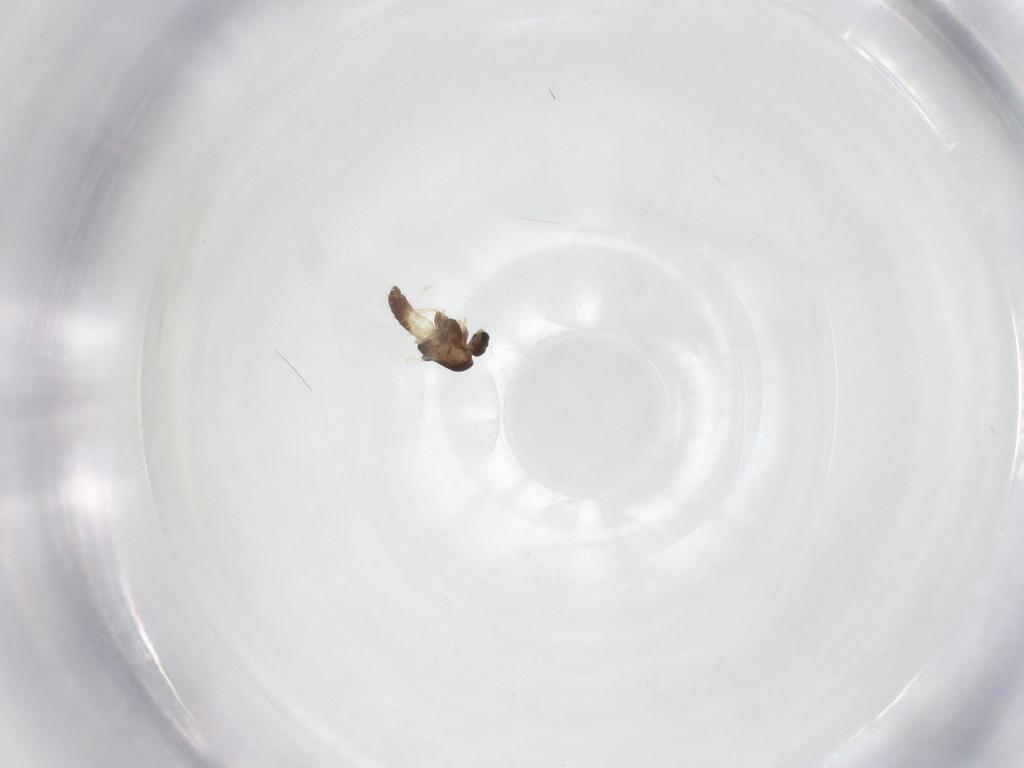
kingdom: Animalia
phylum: Arthropoda
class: Insecta
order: Diptera
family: Chironomidae
